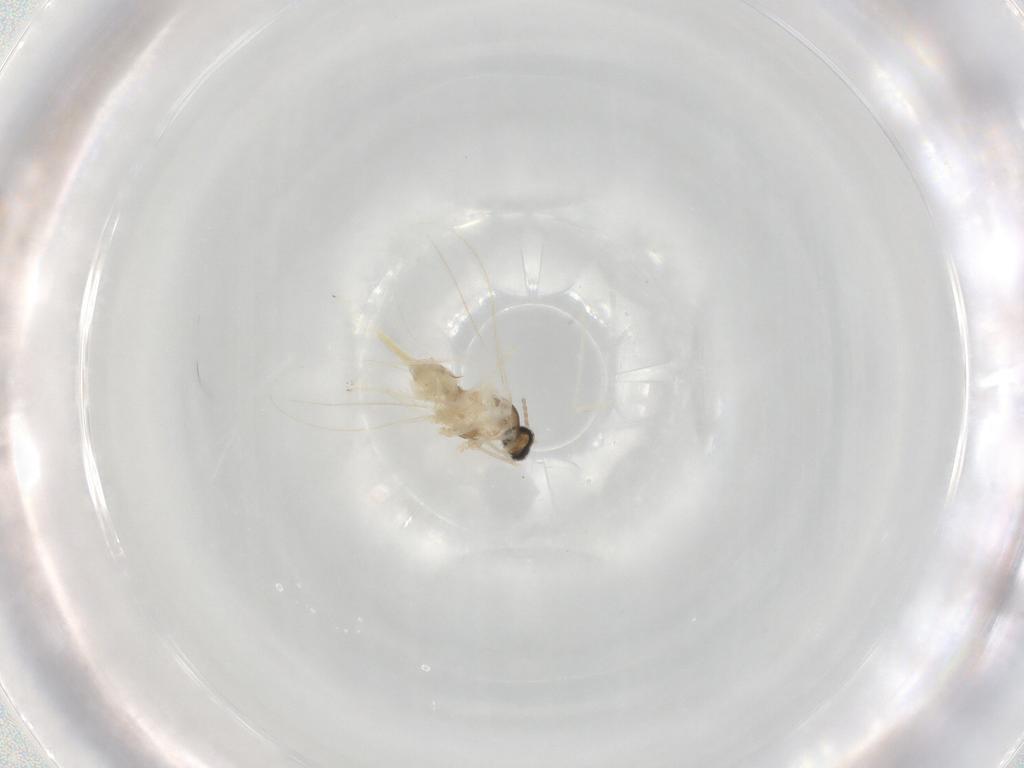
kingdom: Animalia
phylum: Arthropoda
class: Insecta
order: Diptera
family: Cecidomyiidae
